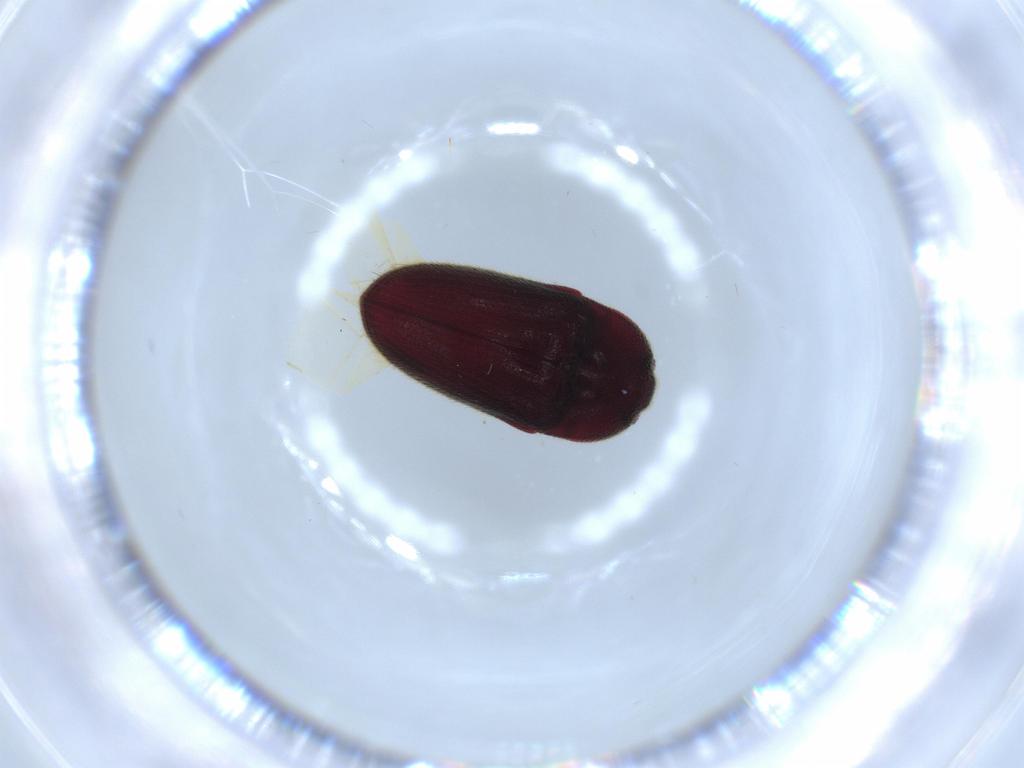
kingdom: Animalia
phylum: Arthropoda
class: Insecta
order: Coleoptera
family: Throscidae
